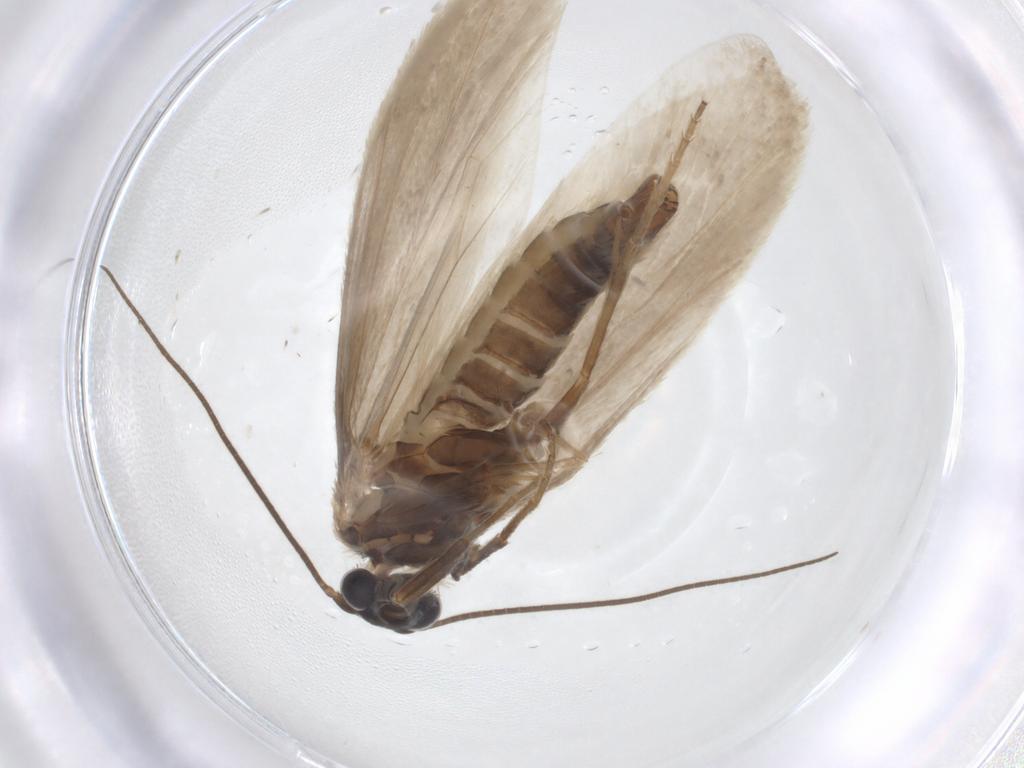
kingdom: Animalia
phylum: Arthropoda
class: Insecta
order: Lepidoptera
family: Tridentaformidae
